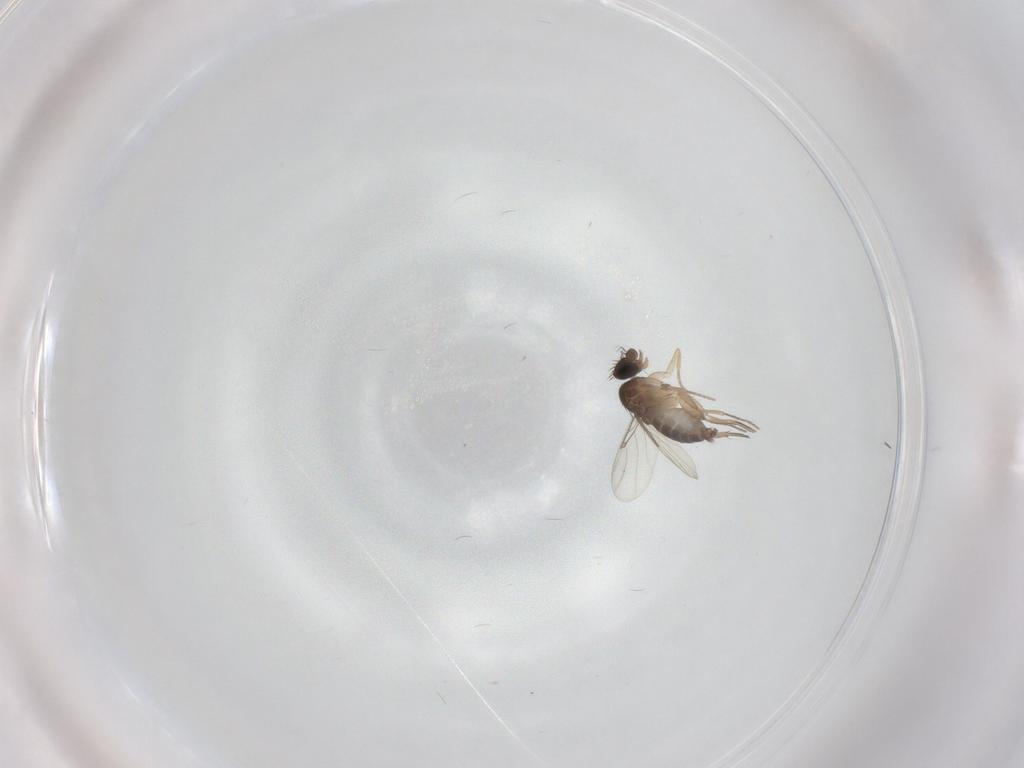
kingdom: Animalia
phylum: Arthropoda
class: Insecta
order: Diptera
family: Phoridae
